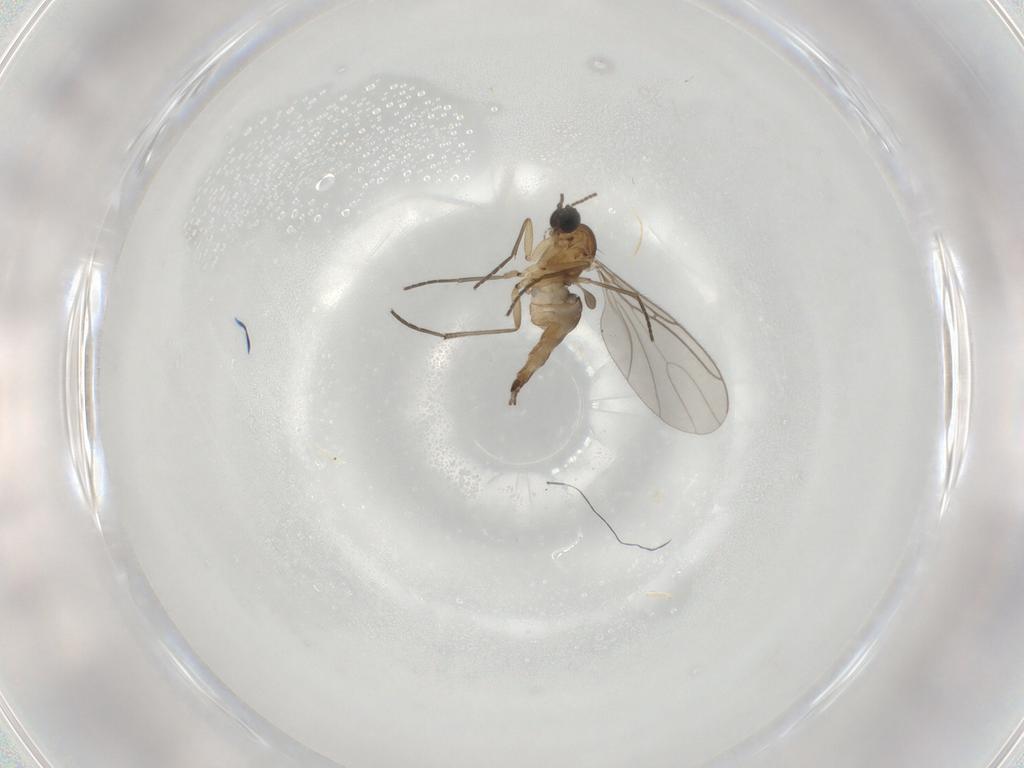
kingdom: Animalia
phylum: Arthropoda
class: Insecta
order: Diptera
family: Sciaridae
